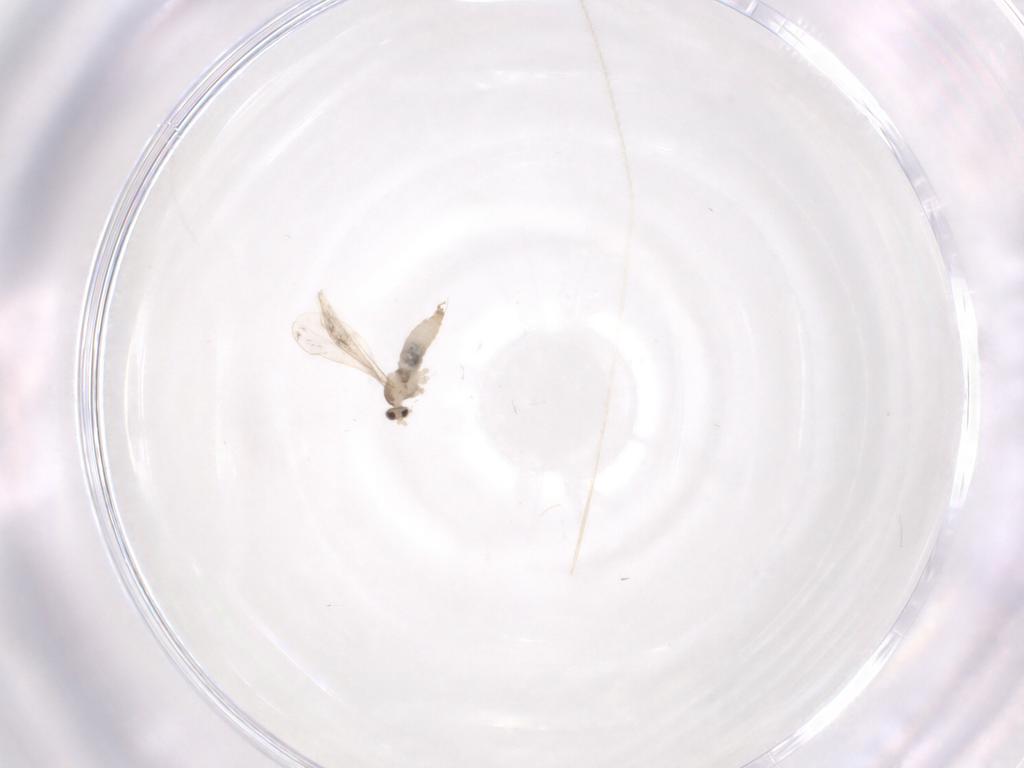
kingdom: Animalia
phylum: Arthropoda
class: Insecta
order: Diptera
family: Cecidomyiidae
